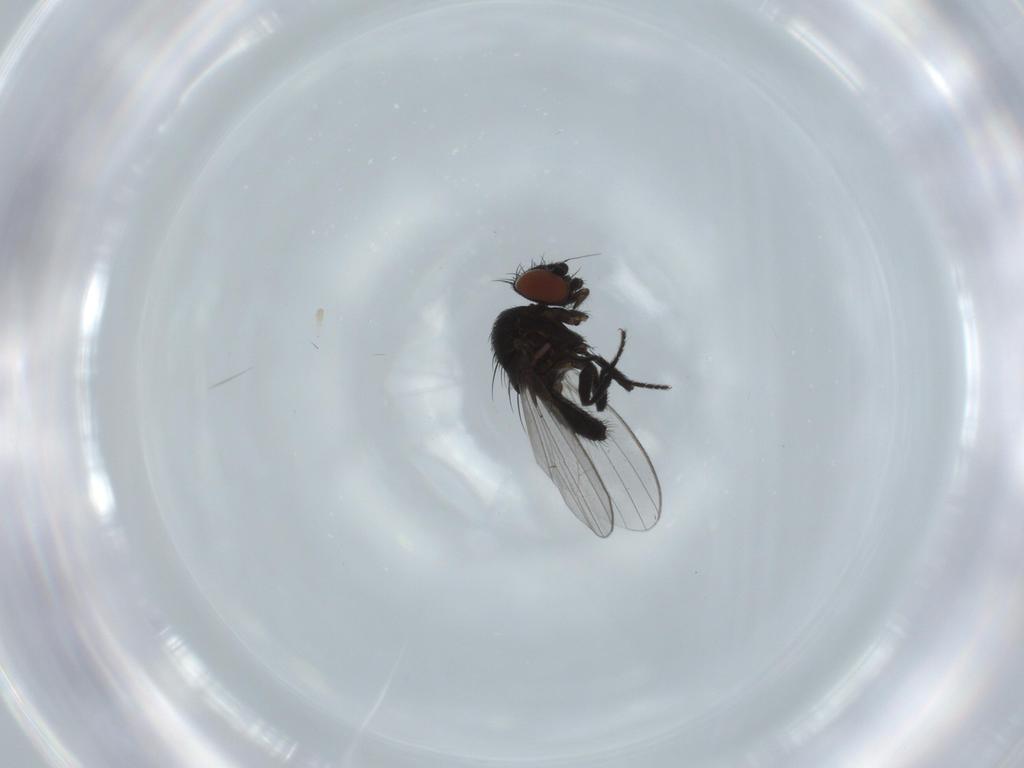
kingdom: Animalia
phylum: Arthropoda
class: Insecta
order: Diptera
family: Milichiidae
